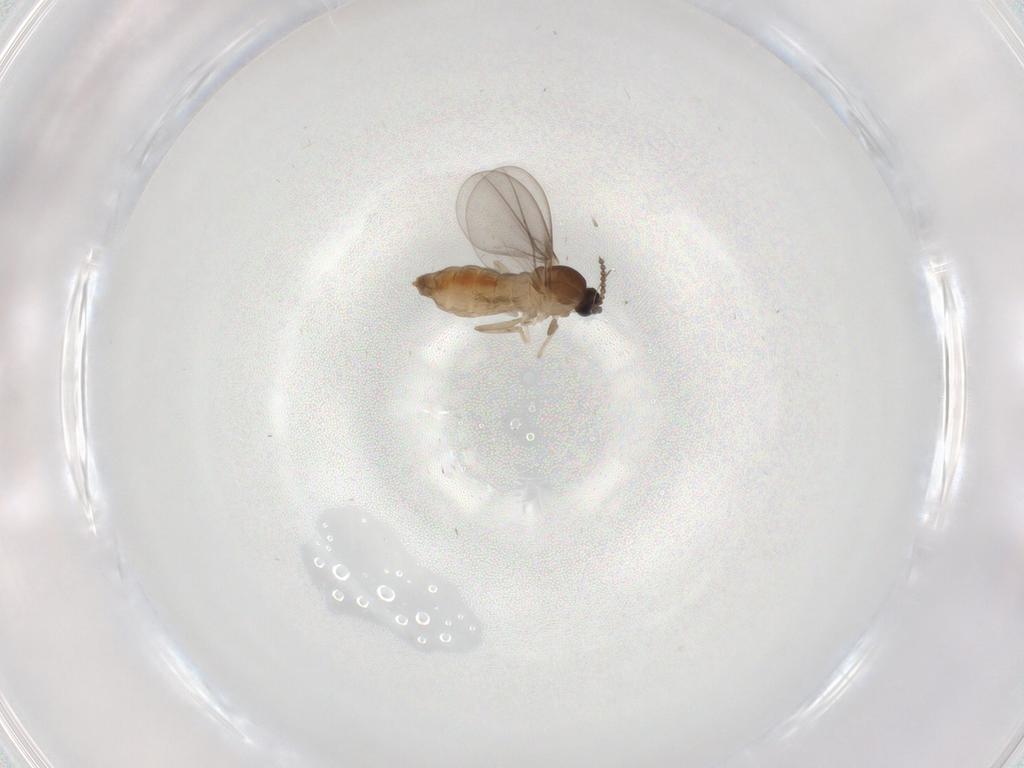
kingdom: Animalia
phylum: Arthropoda
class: Insecta
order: Diptera
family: Cecidomyiidae
